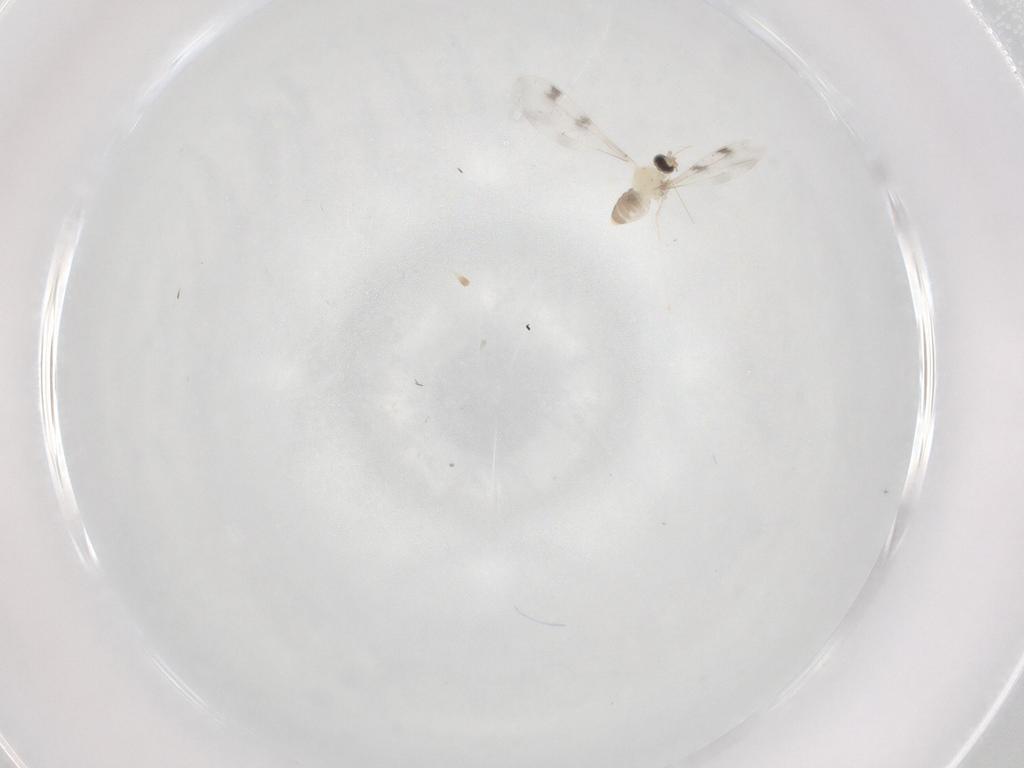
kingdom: Animalia
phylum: Arthropoda
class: Insecta
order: Diptera
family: Cecidomyiidae
